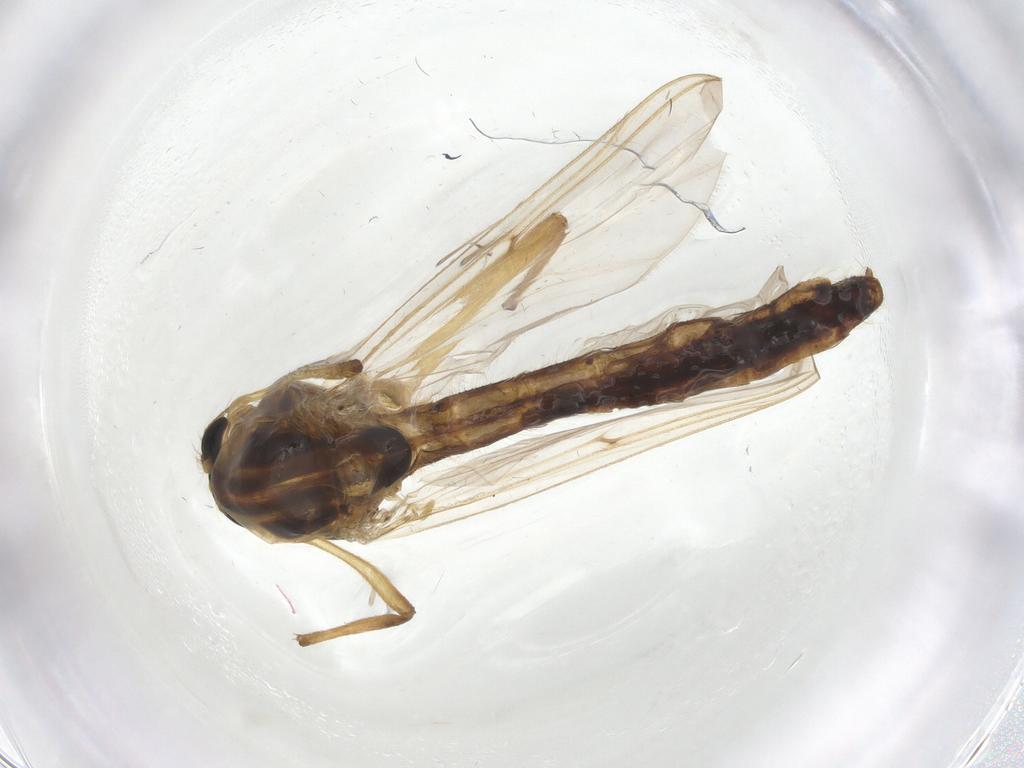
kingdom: Animalia
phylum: Arthropoda
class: Insecta
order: Diptera
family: Chironomidae
